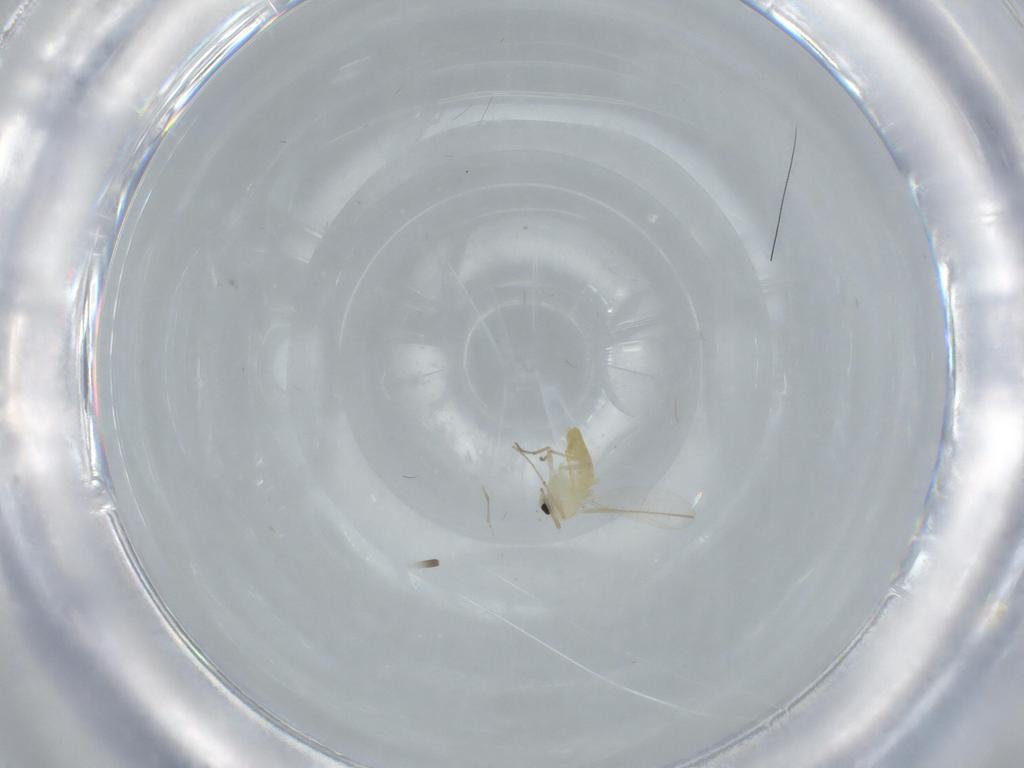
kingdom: Animalia
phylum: Arthropoda
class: Insecta
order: Diptera
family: Chironomidae
